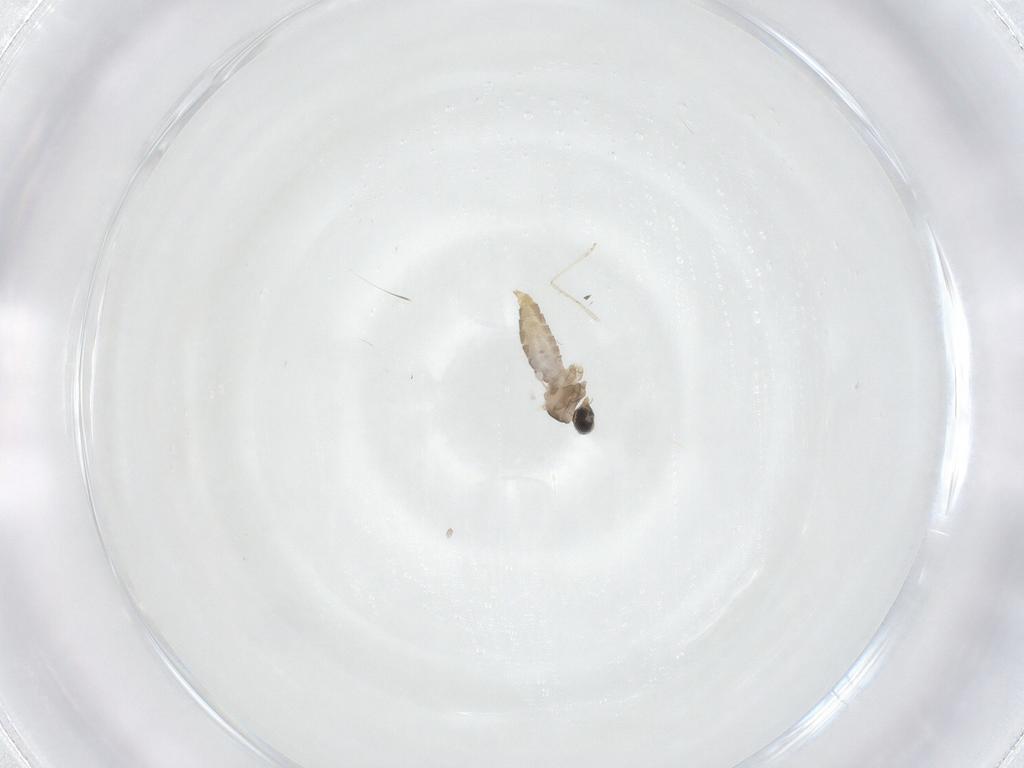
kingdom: Animalia
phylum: Arthropoda
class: Insecta
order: Diptera
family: Cecidomyiidae
